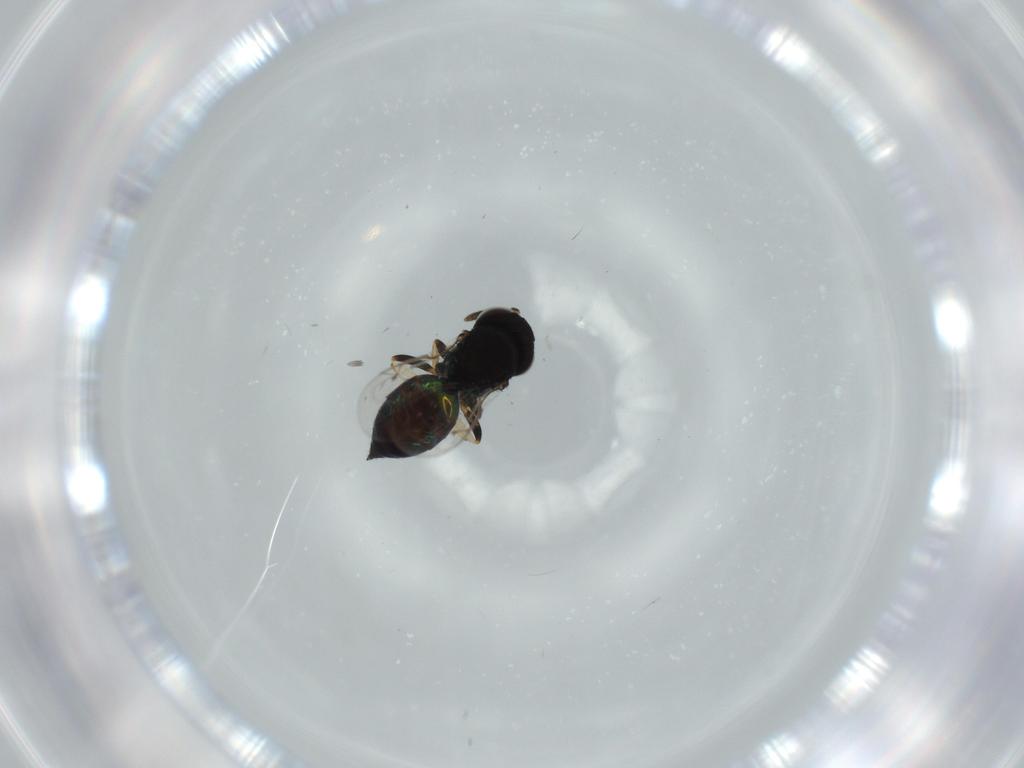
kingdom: Animalia
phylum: Arthropoda
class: Insecta
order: Hymenoptera
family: Pteromalidae
